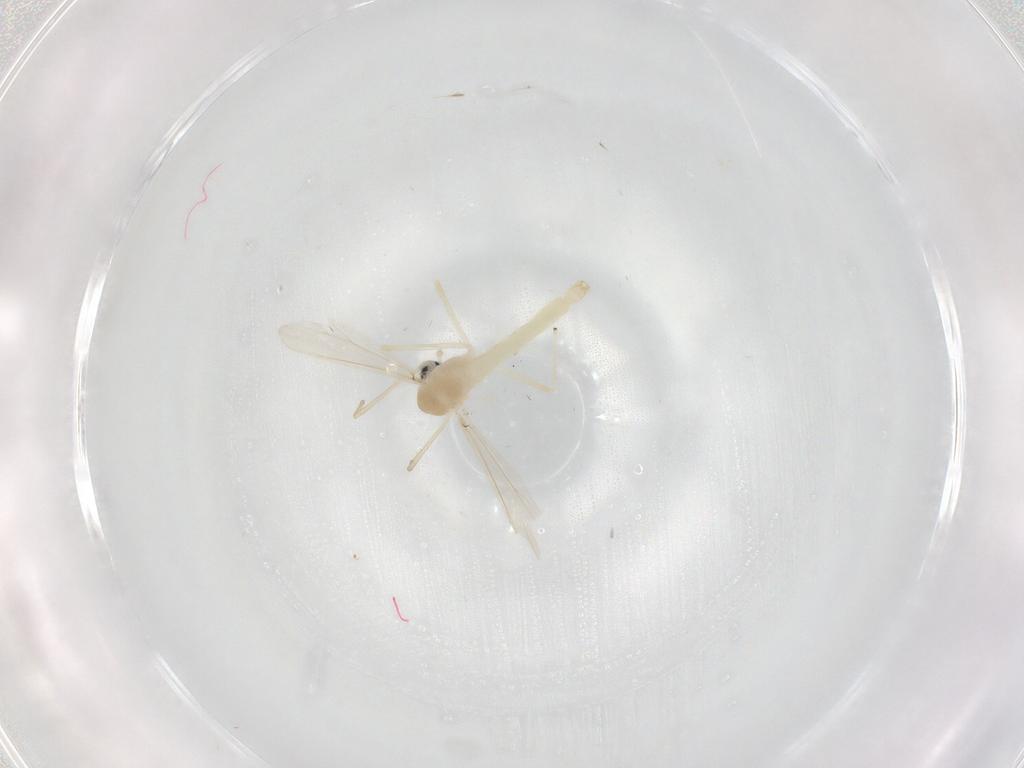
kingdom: Animalia
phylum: Arthropoda
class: Insecta
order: Diptera
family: Chironomidae
